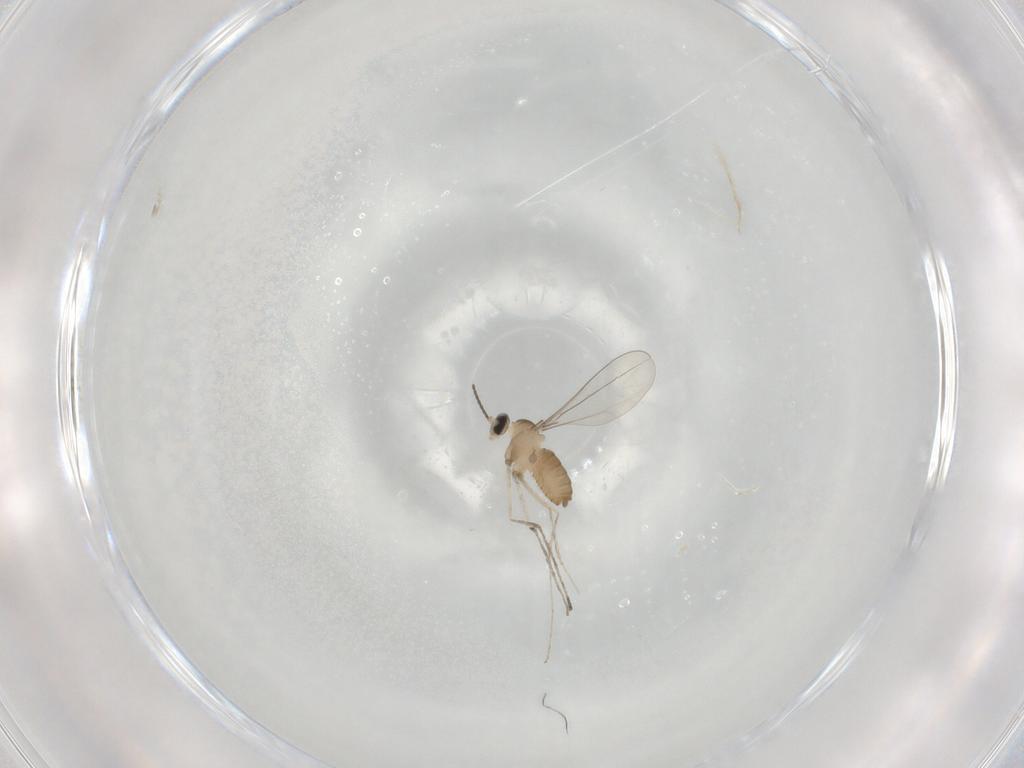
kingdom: Animalia
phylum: Arthropoda
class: Insecta
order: Diptera
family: Cecidomyiidae
